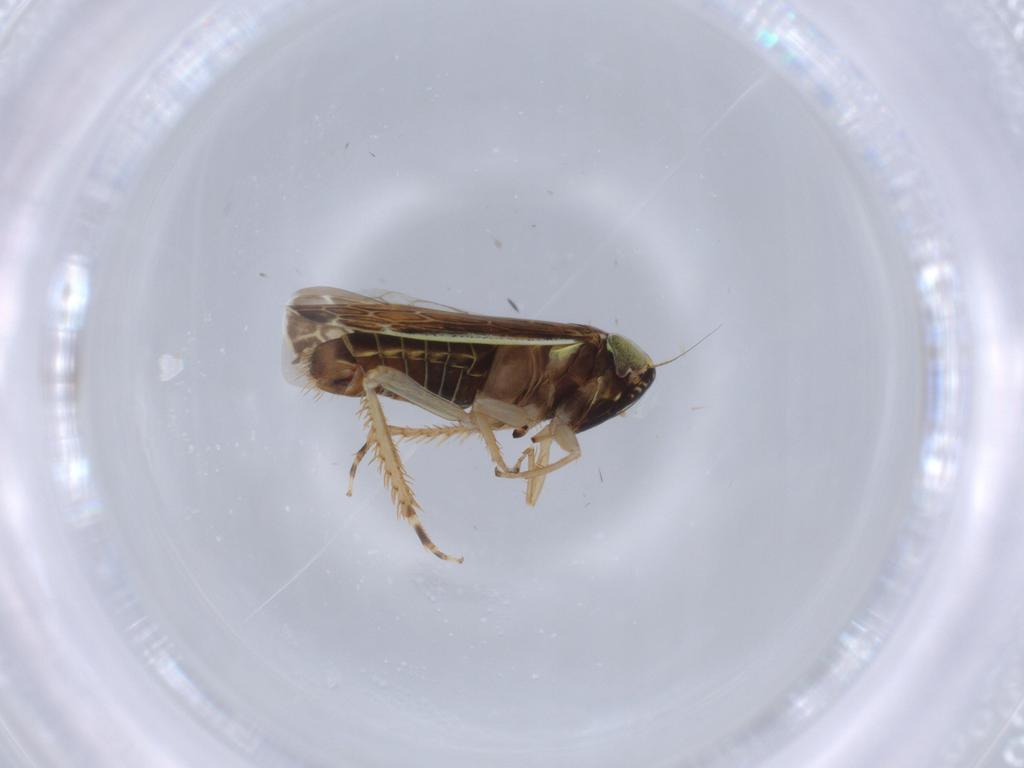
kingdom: Animalia
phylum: Arthropoda
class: Insecta
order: Hemiptera
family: Cicadellidae
